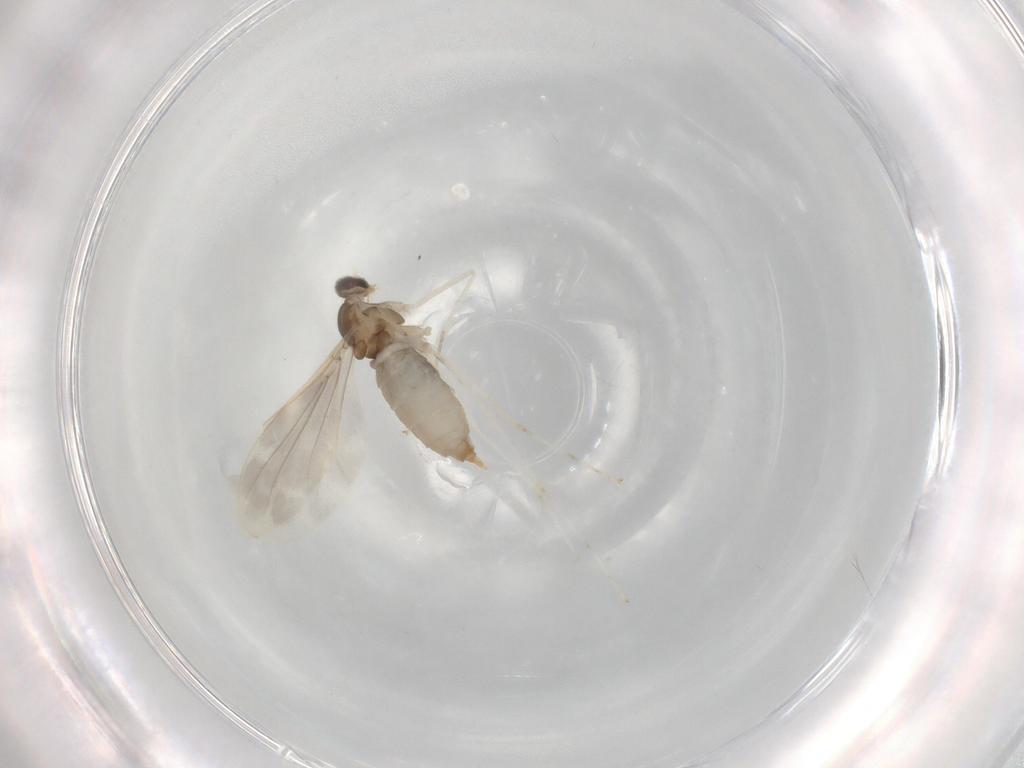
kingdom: Animalia
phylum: Arthropoda
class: Insecta
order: Diptera
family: Cecidomyiidae
